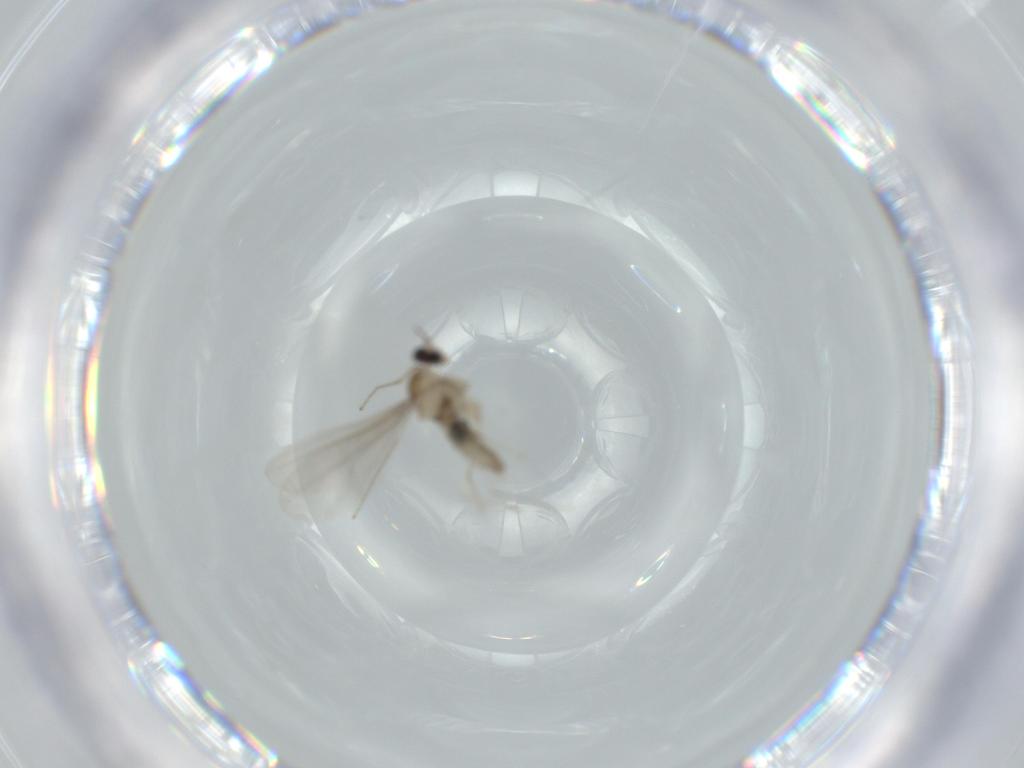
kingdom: Animalia
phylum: Arthropoda
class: Insecta
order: Diptera
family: Cecidomyiidae
